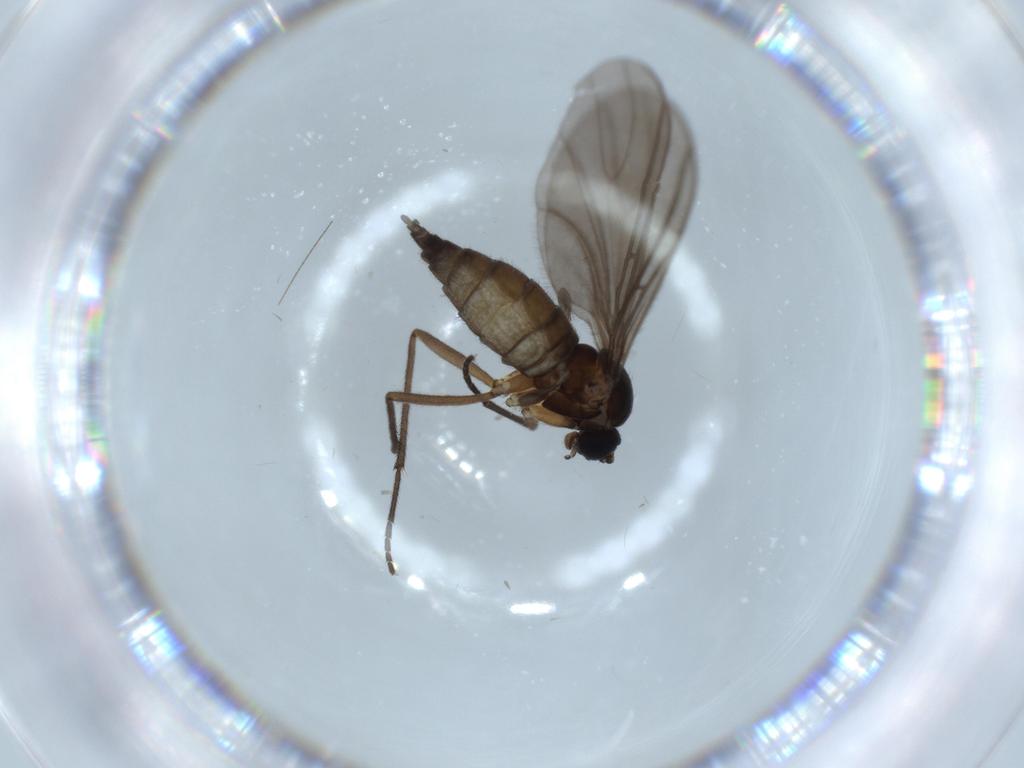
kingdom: Animalia
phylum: Arthropoda
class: Insecta
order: Diptera
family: Sciaridae
